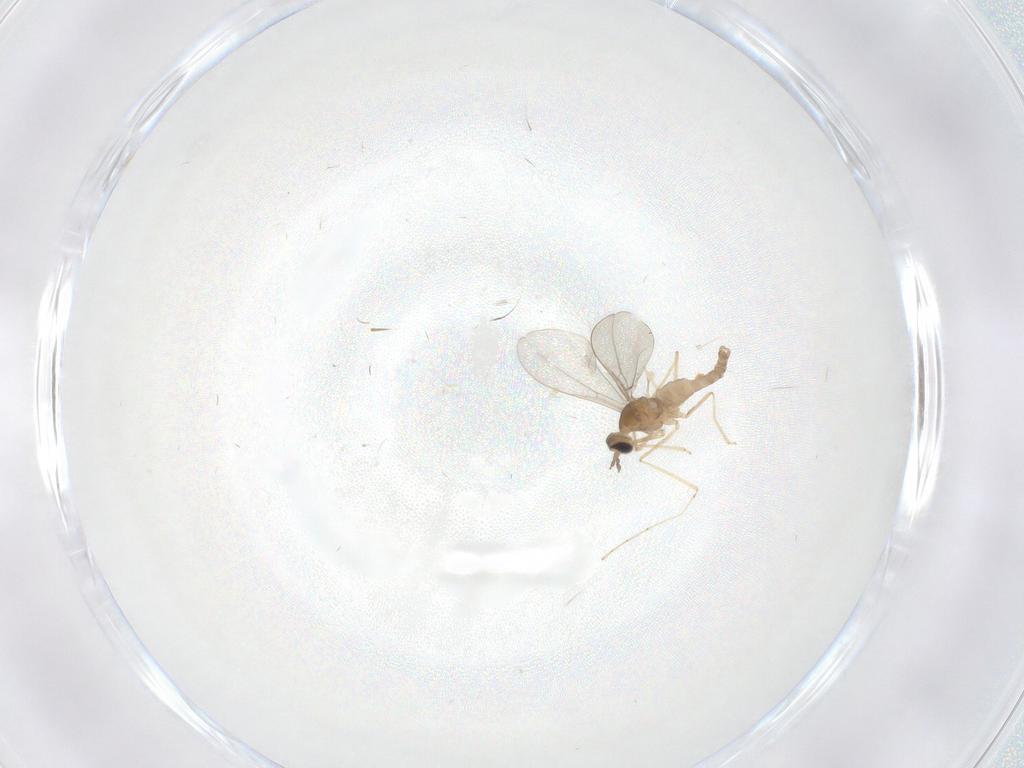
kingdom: Animalia
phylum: Arthropoda
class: Insecta
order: Diptera
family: Cecidomyiidae
